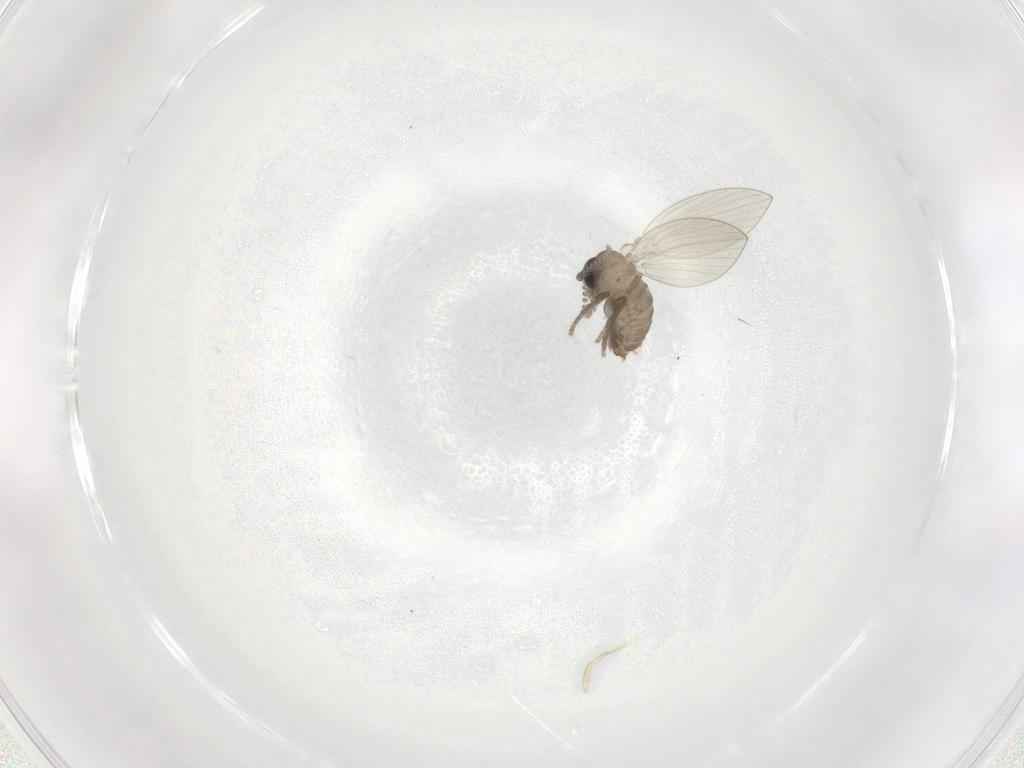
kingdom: Animalia
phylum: Arthropoda
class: Insecta
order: Diptera
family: Psychodidae
